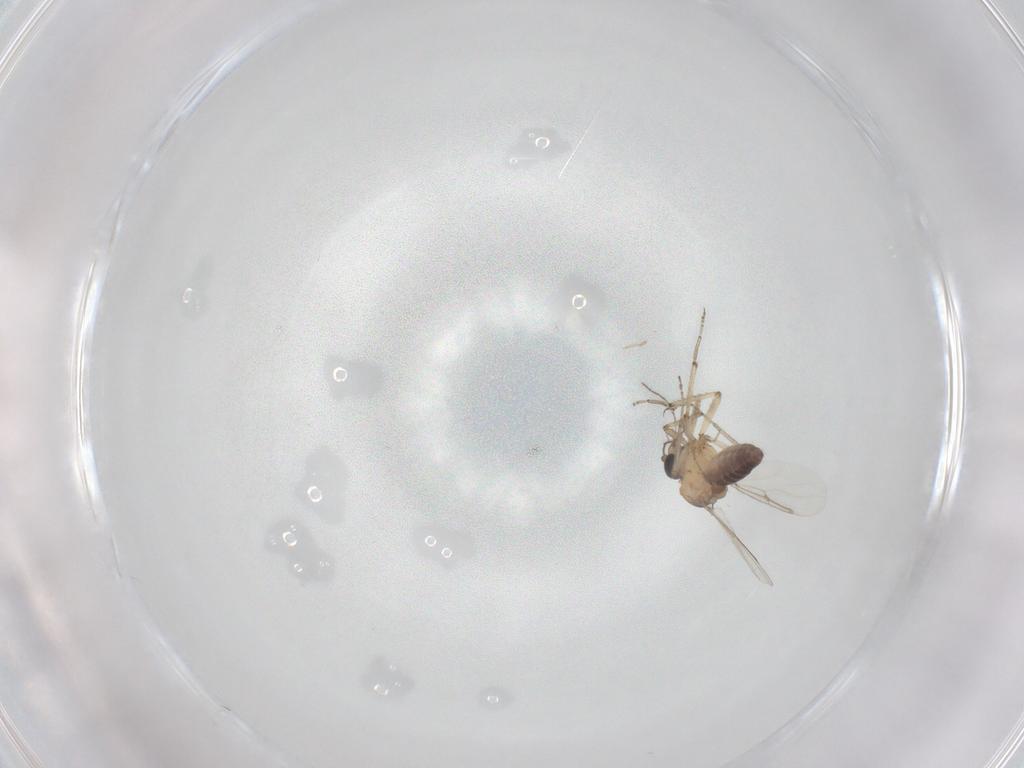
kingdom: Animalia
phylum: Arthropoda
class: Insecta
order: Diptera
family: Ceratopogonidae
